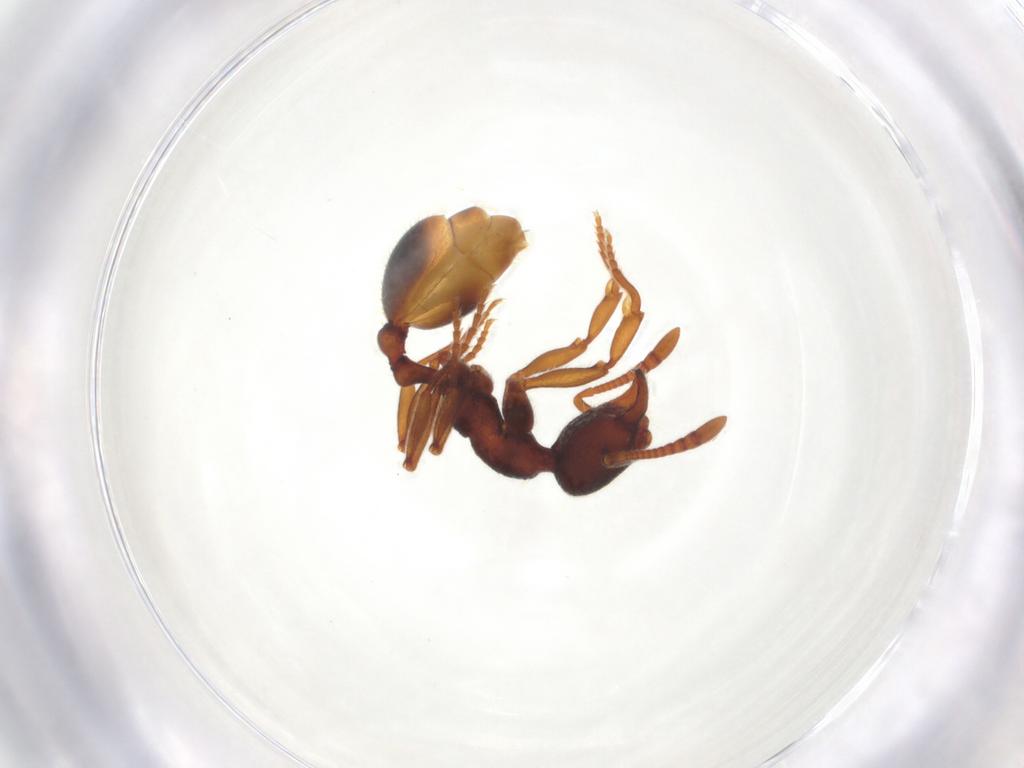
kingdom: Animalia
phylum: Arthropoda
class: Insecta
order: Hymenoptera
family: Formicidae
